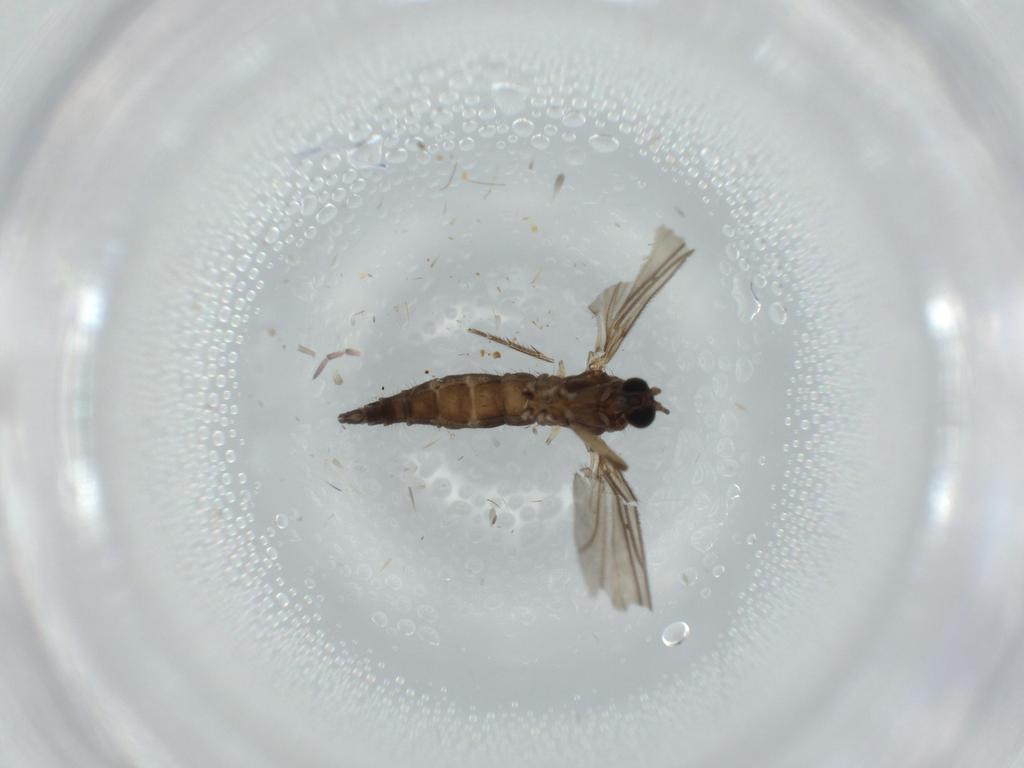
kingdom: Animalia
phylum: Arthropoda
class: Insecta
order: Diptera
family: Sciaridae
